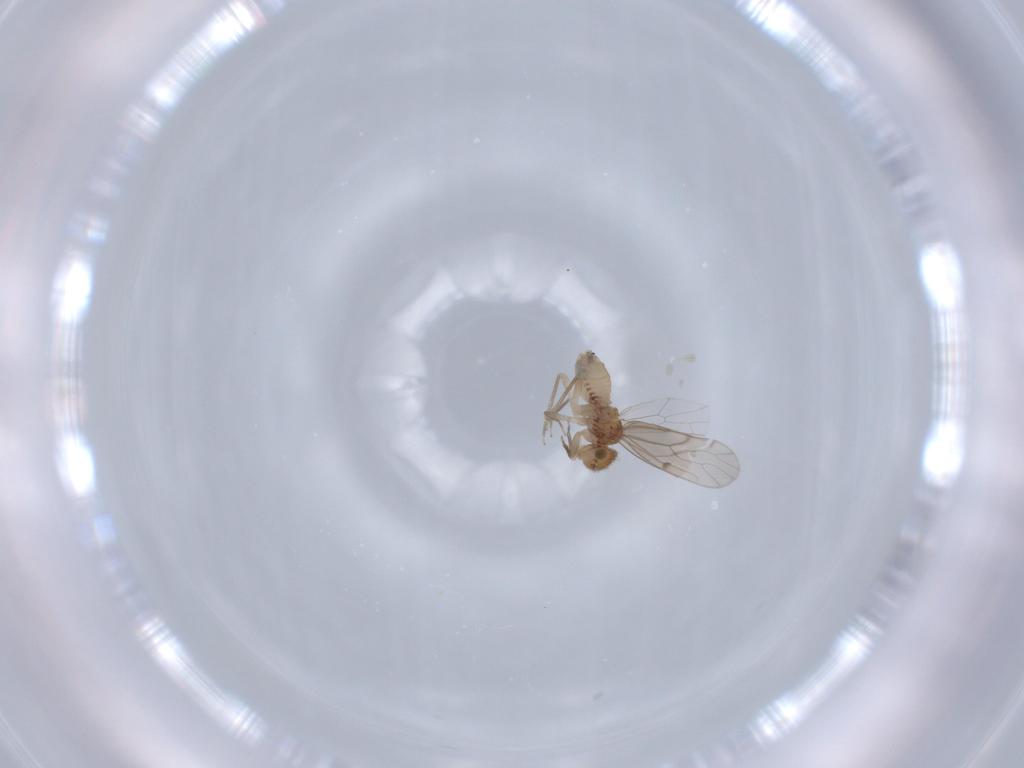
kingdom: Animalia
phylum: Arthropoda
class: Insecta
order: Psocodea
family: Ectopsocidae
